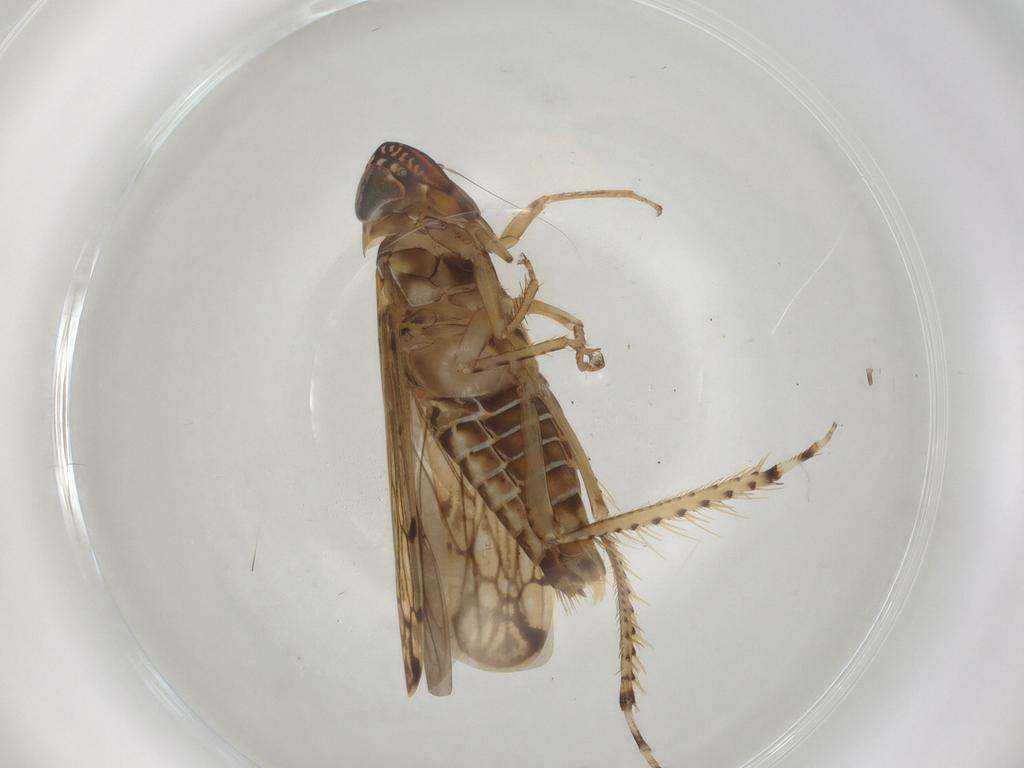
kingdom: Animalia
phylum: Arthropoda
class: Insecta
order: Hemiptera
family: Cicadellidae
